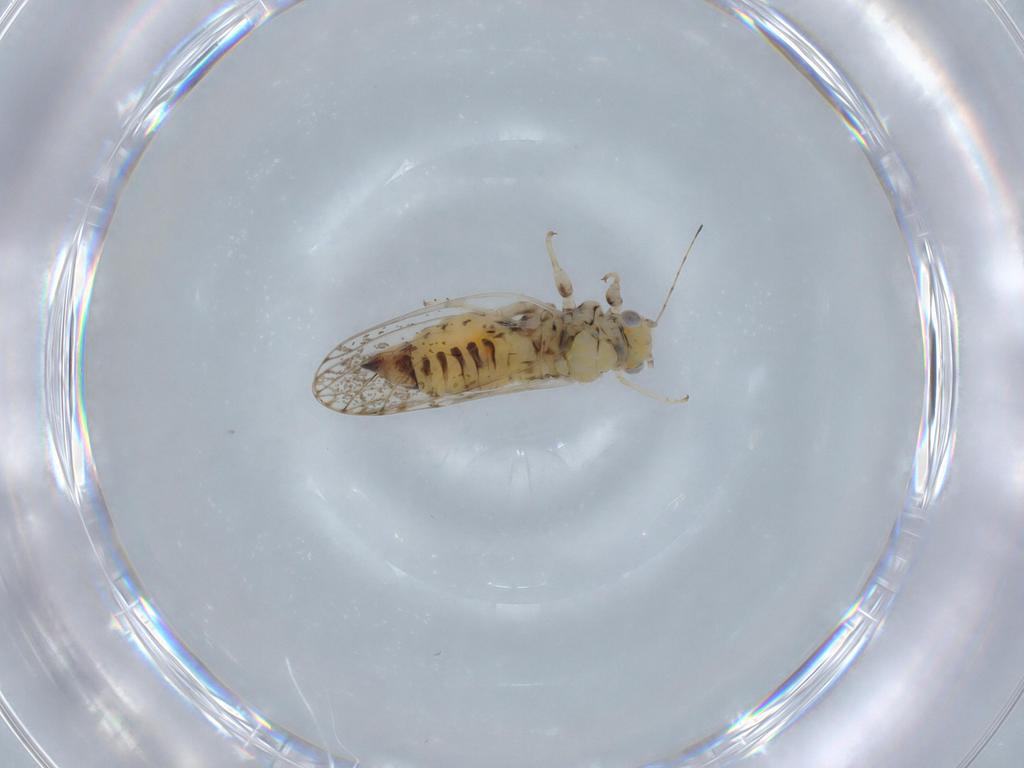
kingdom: Animalia
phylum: Arthropoda
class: Insecta
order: Hemiptera
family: Psyllidae
